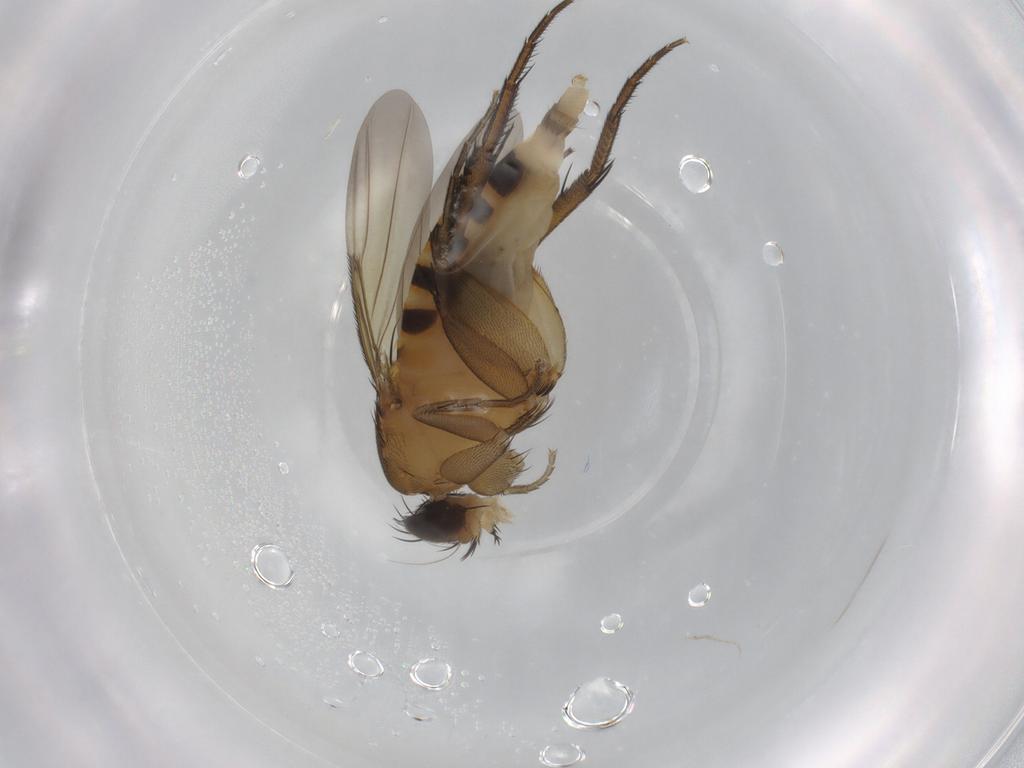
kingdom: Animalia
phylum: Arthropoda
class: Insecta
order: Diptera
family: Phoridae
